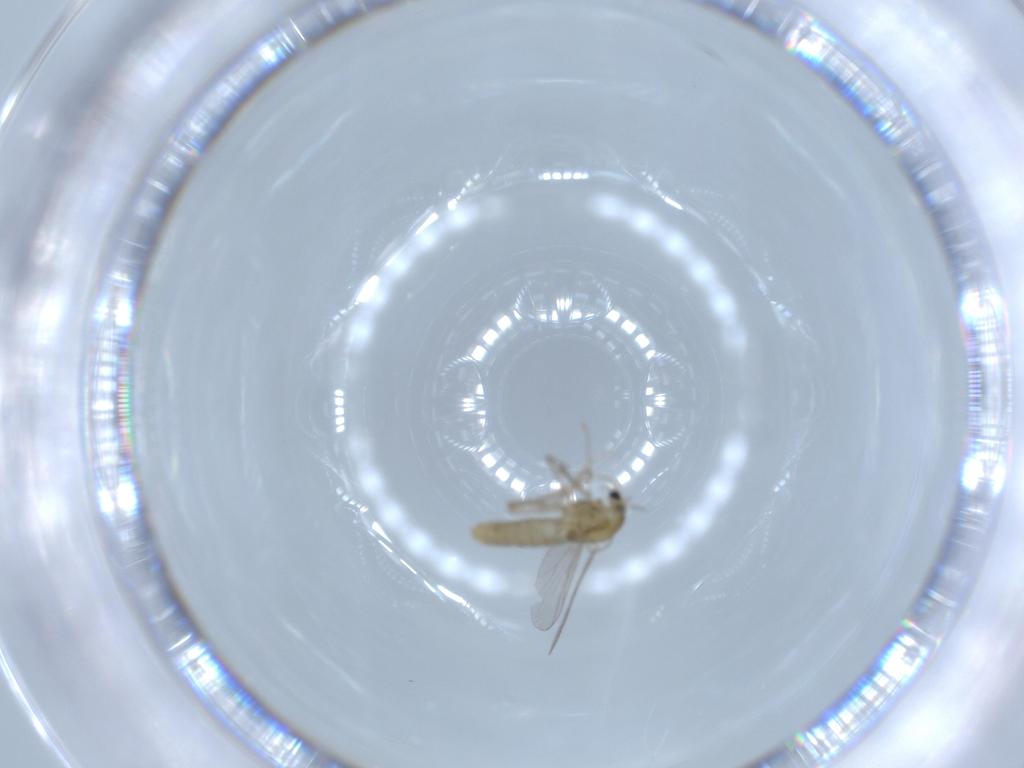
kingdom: Animalia
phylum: Arthropoda
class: Insecta
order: Diptera
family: Chironomidae
